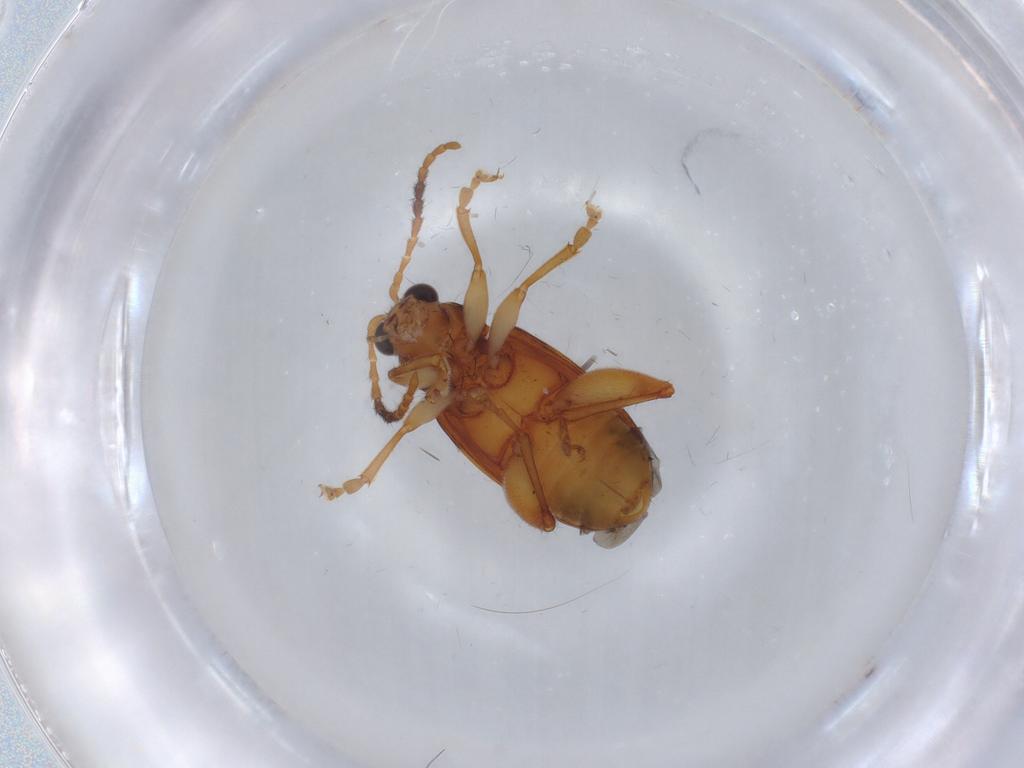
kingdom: Animalia
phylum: Arthropoda
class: Insecta
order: Coleoptera
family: Chrysomelidae
